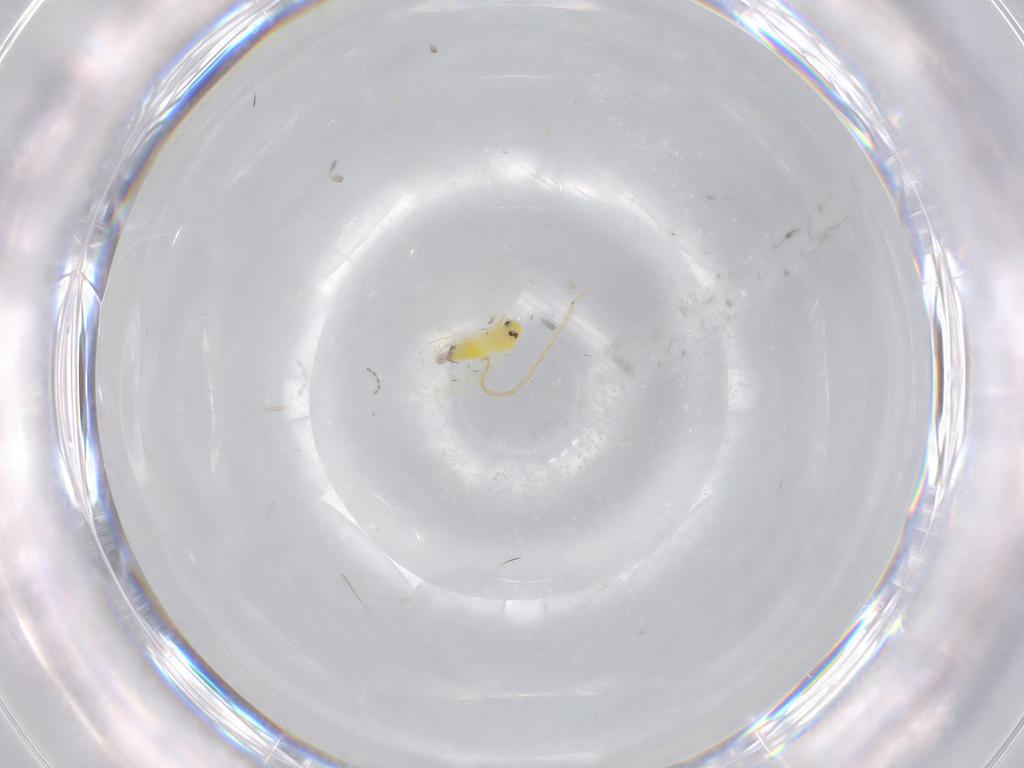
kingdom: Animalia
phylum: Arthropoda
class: Insecta
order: Hemiptera
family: Aleyrodidae
